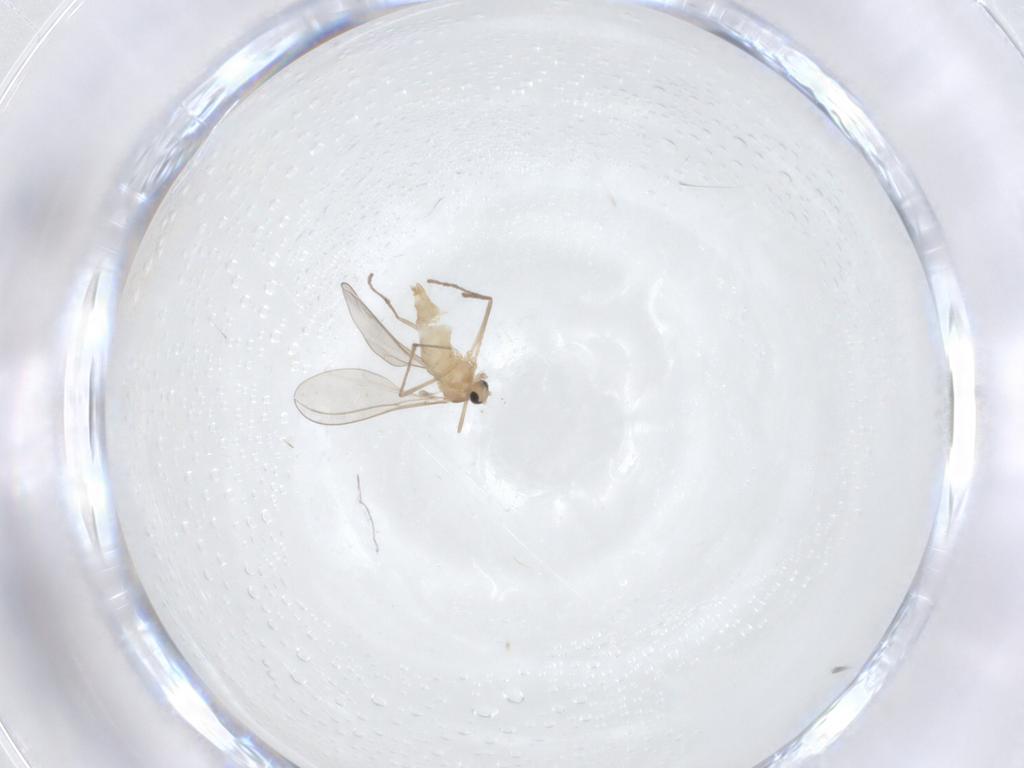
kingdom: Animalia
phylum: Arthropoda
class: Insecta
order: Diptera
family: Cecidomyiidae
